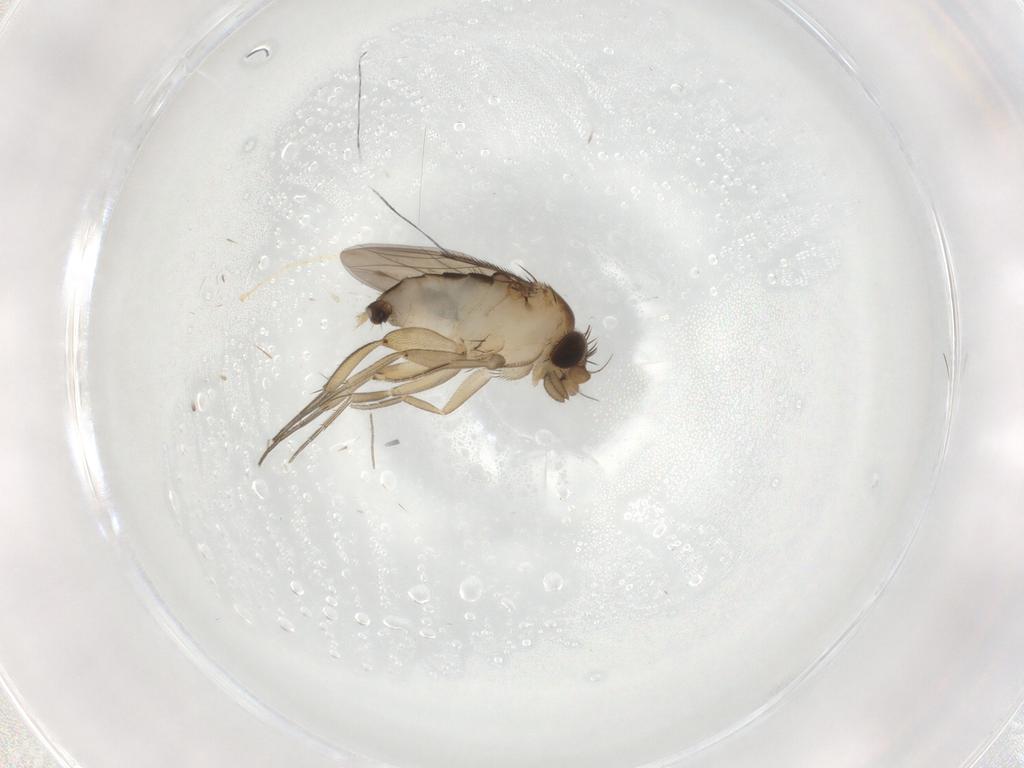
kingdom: Animalia
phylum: Arthropoda
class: Insecta
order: Diptera
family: Phoridae
